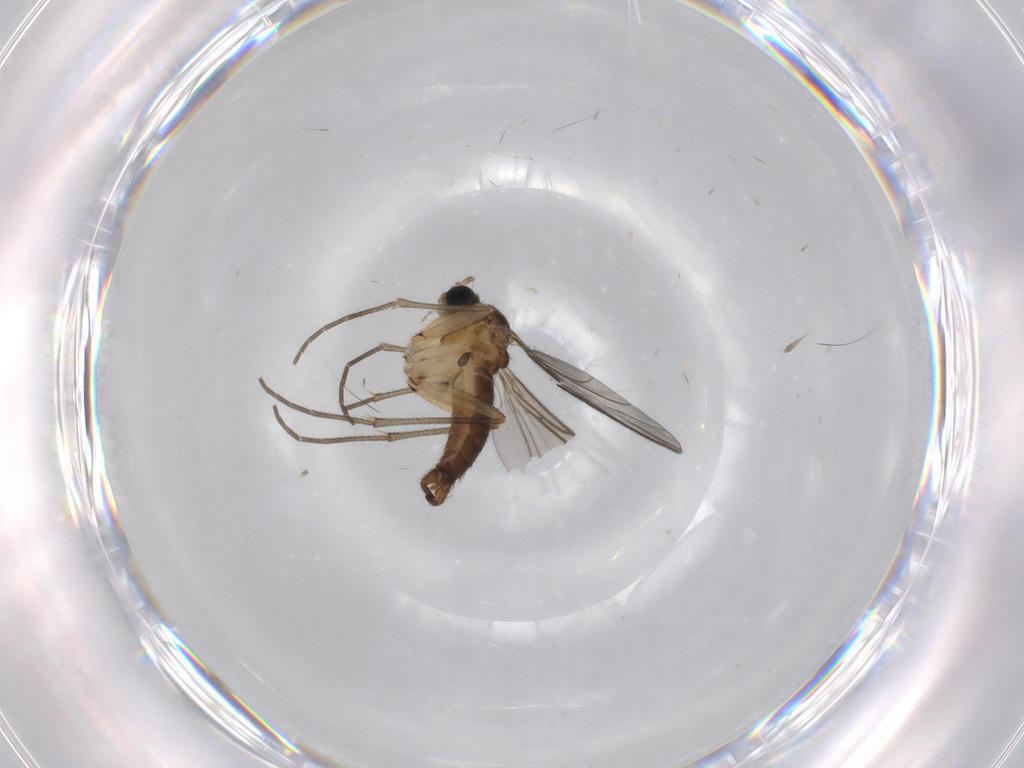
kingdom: Animalia
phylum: Arthropoda
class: Insecta
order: Diptera
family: Sciaridae
